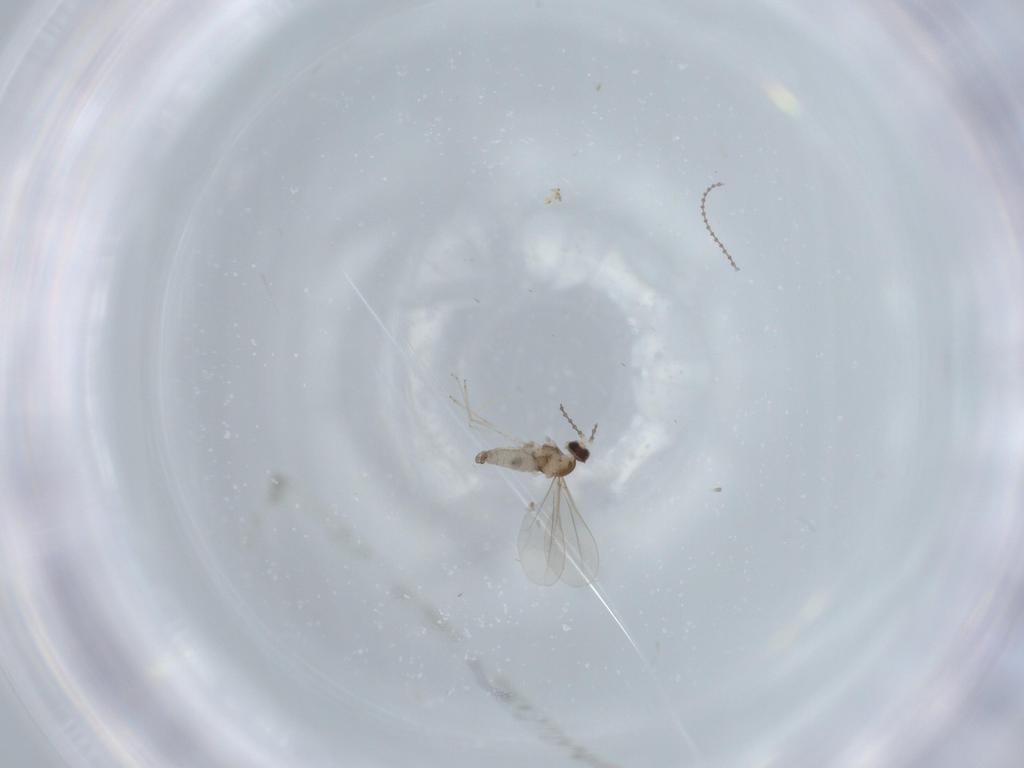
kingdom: Animalia
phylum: Arthropoda
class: Insecta
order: Diptera
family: Cecidomyiidae
